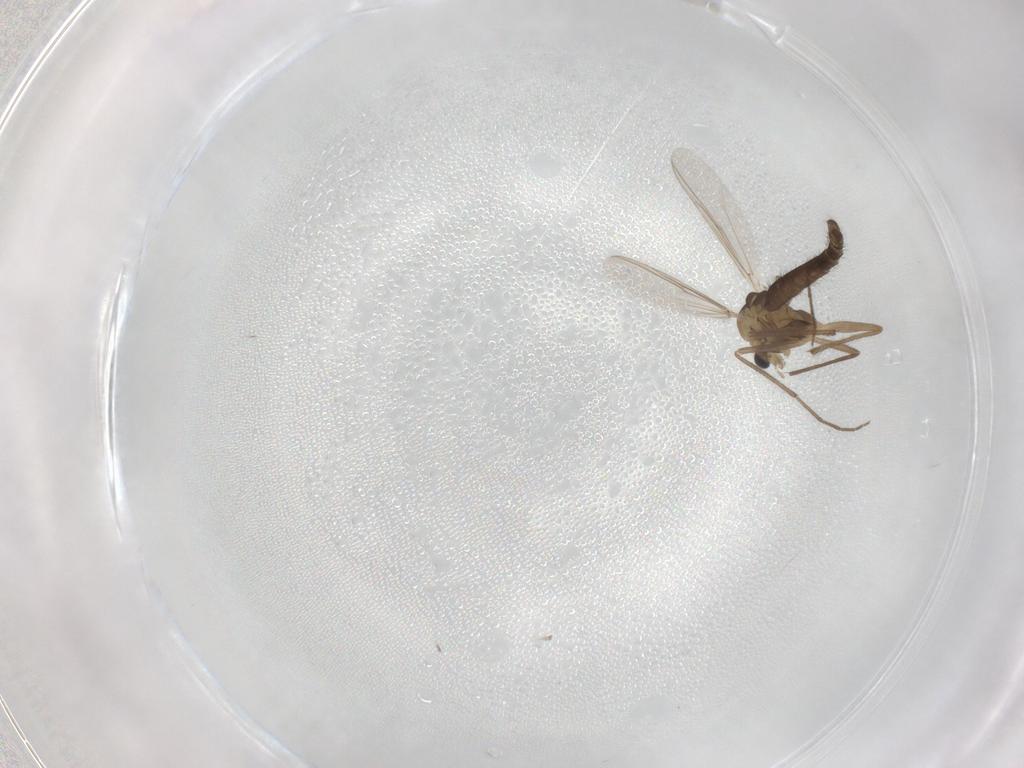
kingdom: Animalia
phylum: Arthropoda
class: Insecta
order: Diptera
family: Chironomidae
